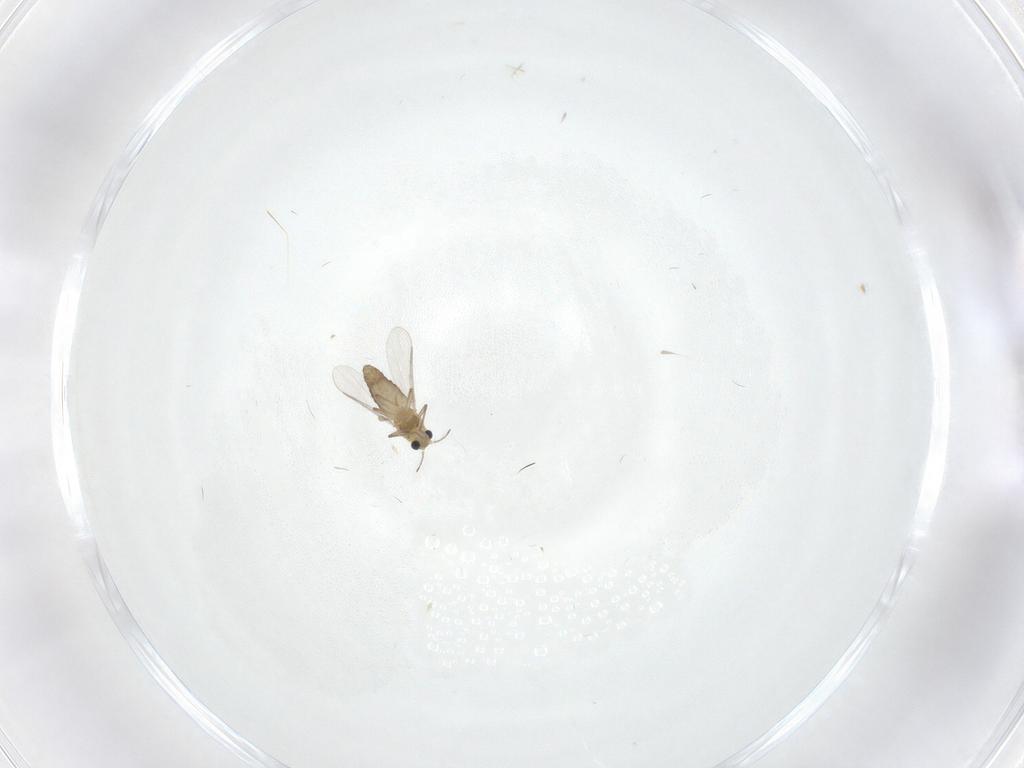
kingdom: Animalia
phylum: Arthropoda
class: Insecta
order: Diptera
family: Chironomidae
